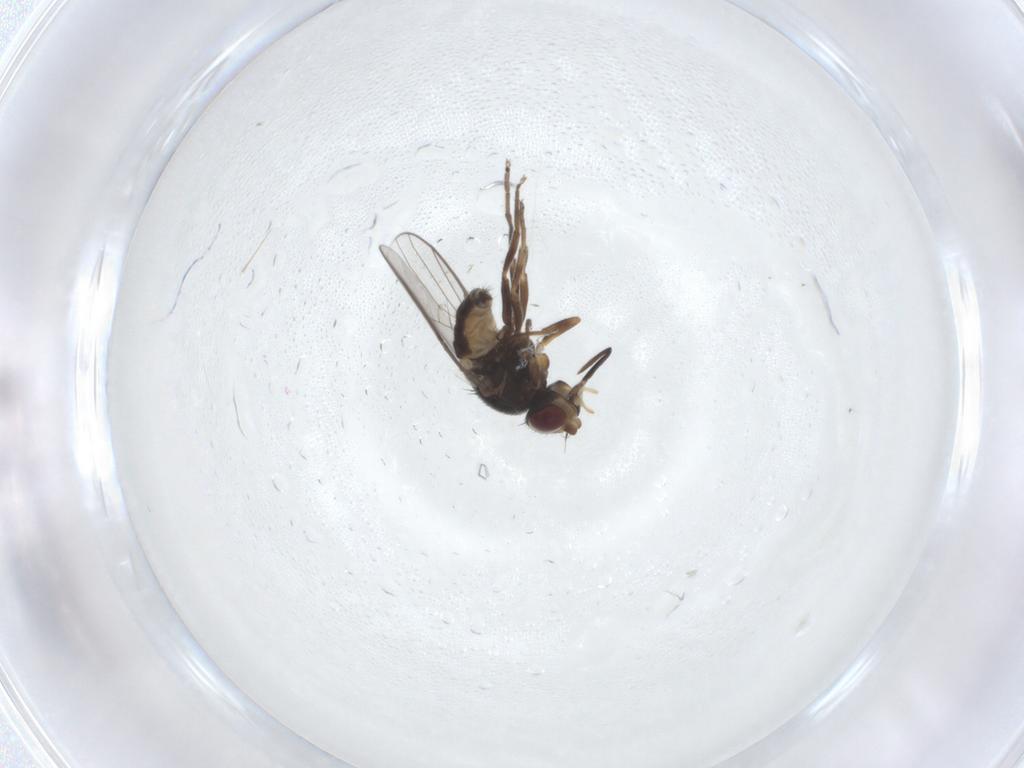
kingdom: Animalia
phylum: Arthropoda
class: Insecta
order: Diptera
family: Chloropidae
